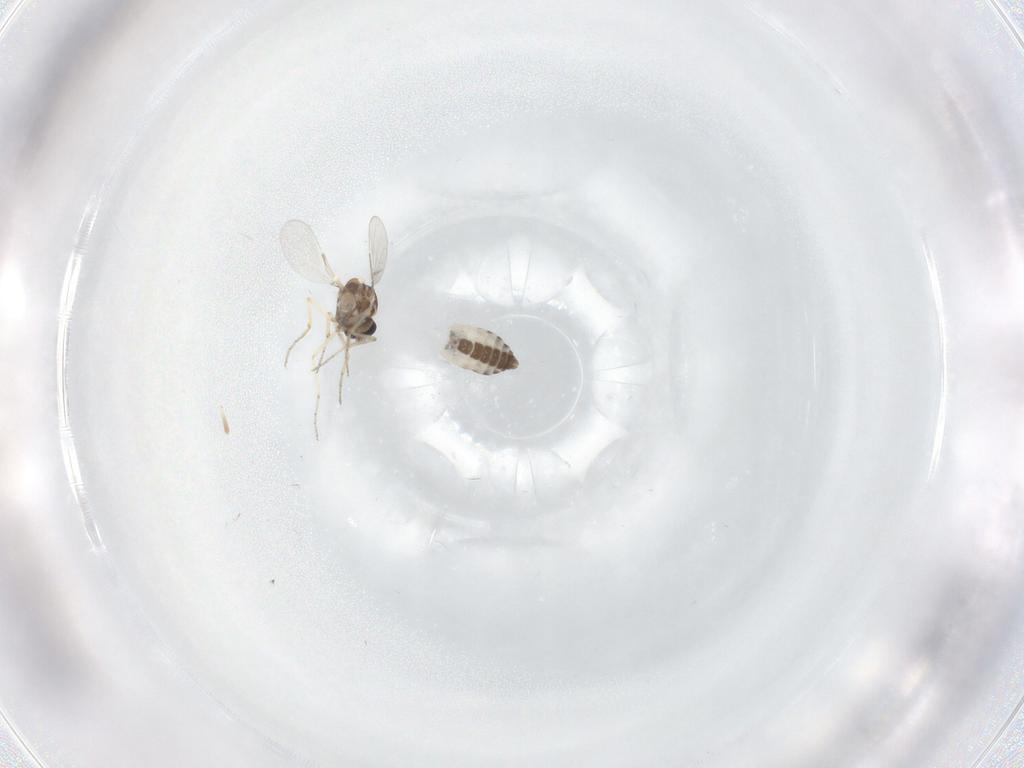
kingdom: Animalia
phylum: Arthropoda
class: Insecta
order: Diptera
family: Ceratopogonidae
